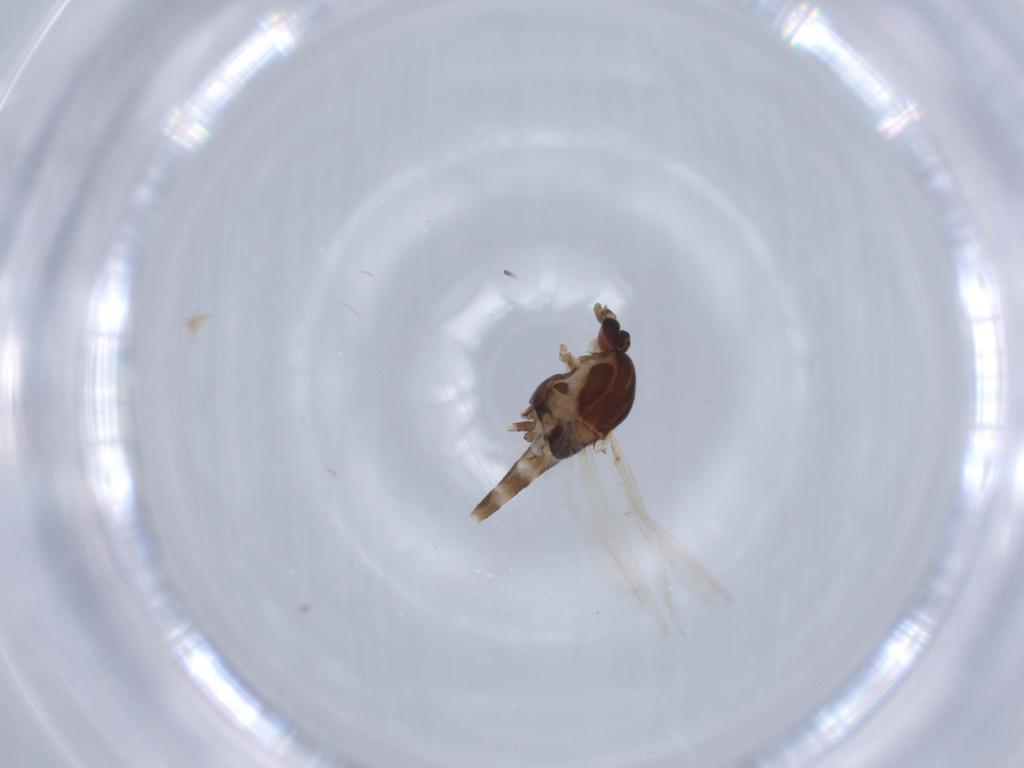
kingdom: Animalia
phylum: Arthropoda
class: Insecta
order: Diptera
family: Chironomidae
